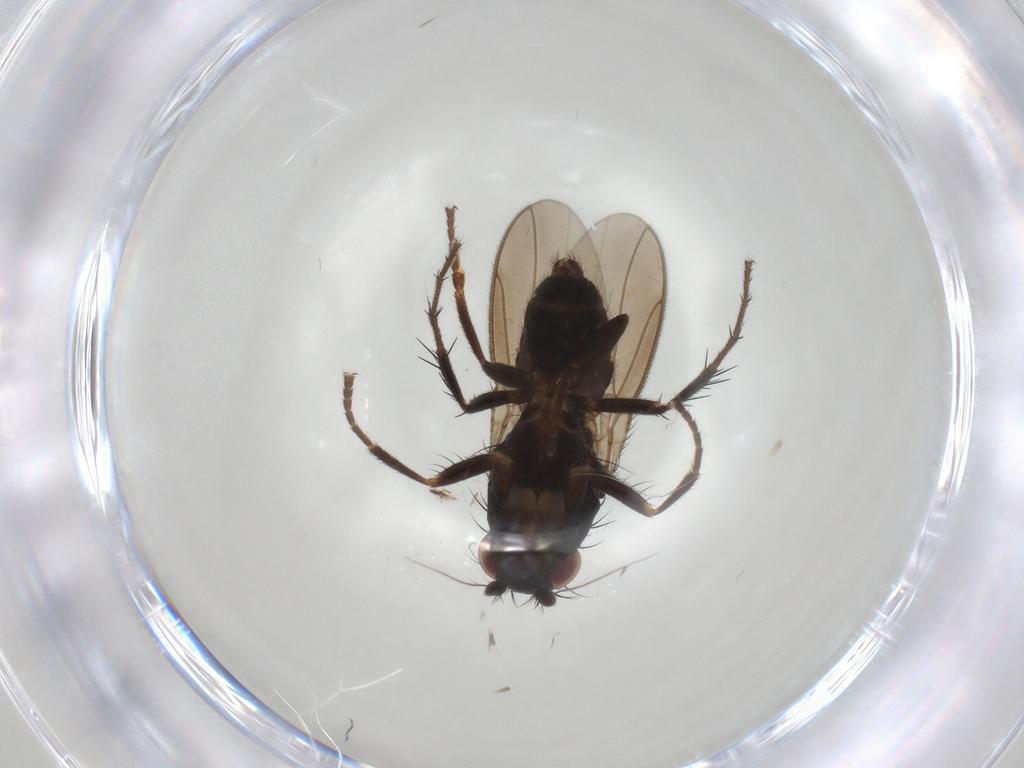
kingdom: Animalia
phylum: Arthropoda
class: Insecta
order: Diptera
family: Sphaeroceridae
